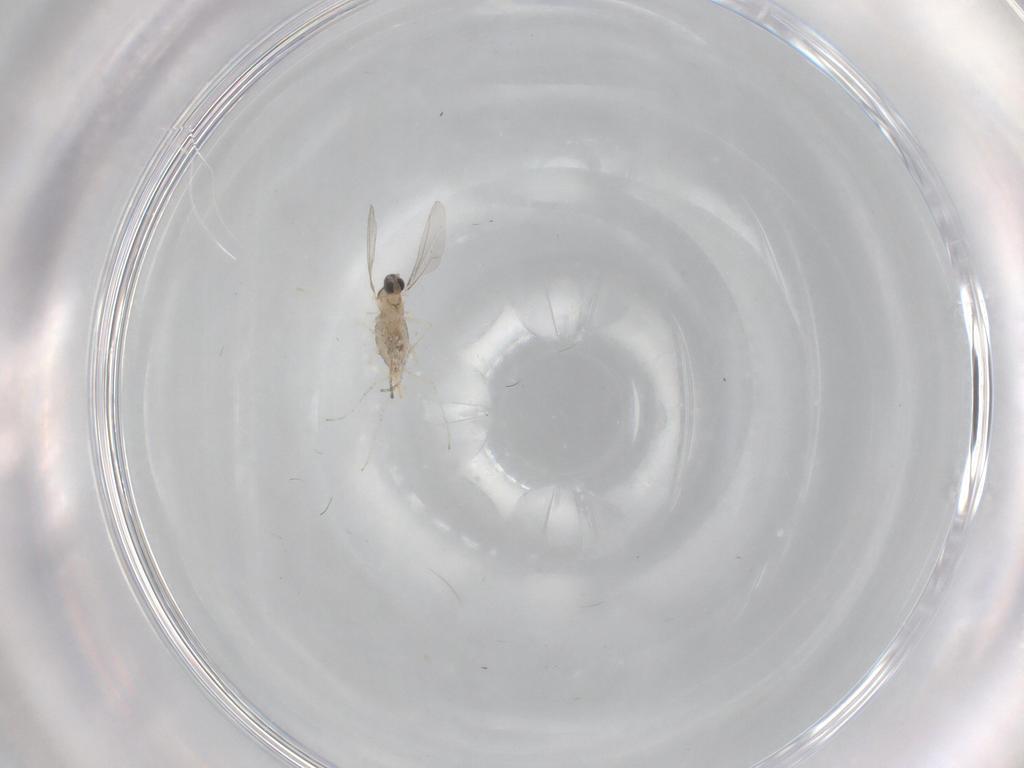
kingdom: Animalia
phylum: Arthropoda
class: Insecta
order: Diptera
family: Cecidomyiidae
